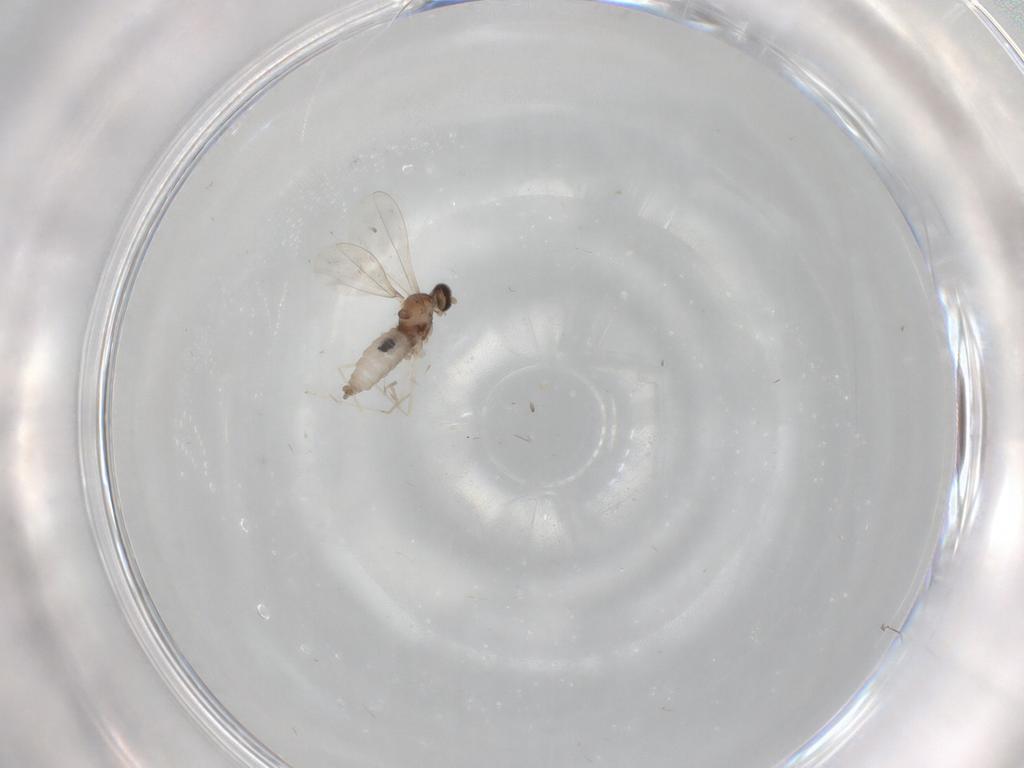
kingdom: Animalia
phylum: Arthropoda
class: Insecta
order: Diptera
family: Cecidomyiidae
